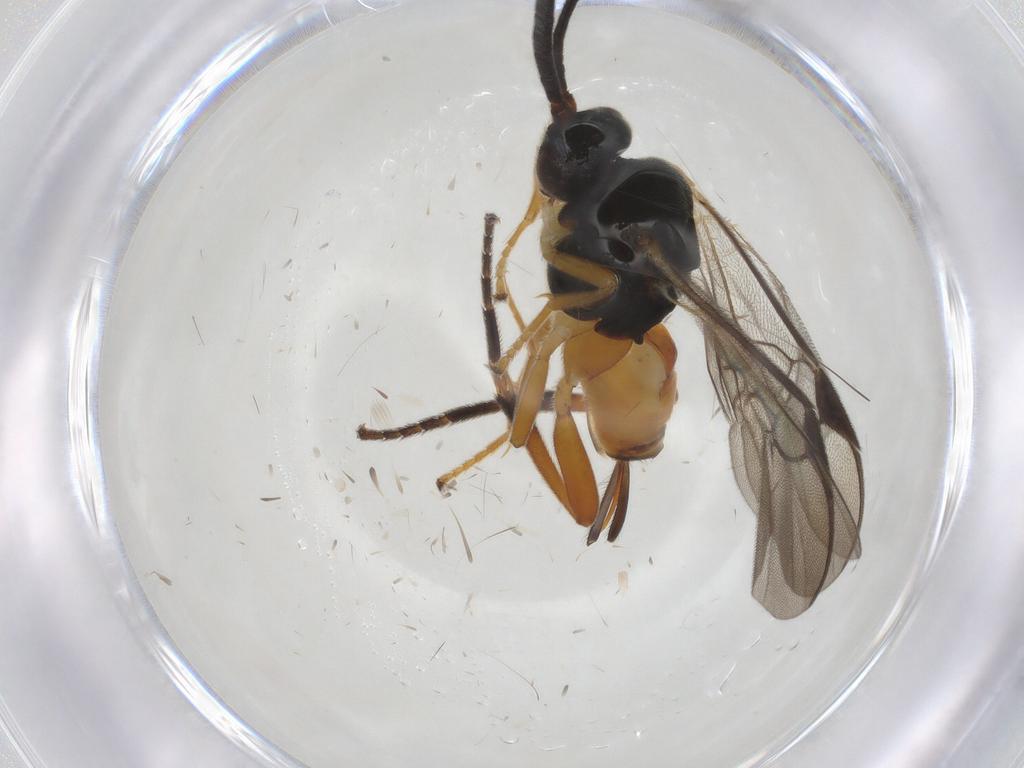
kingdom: Animalia
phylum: Arthropoda
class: Insecta
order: Hymenoptera
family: Braconidae
